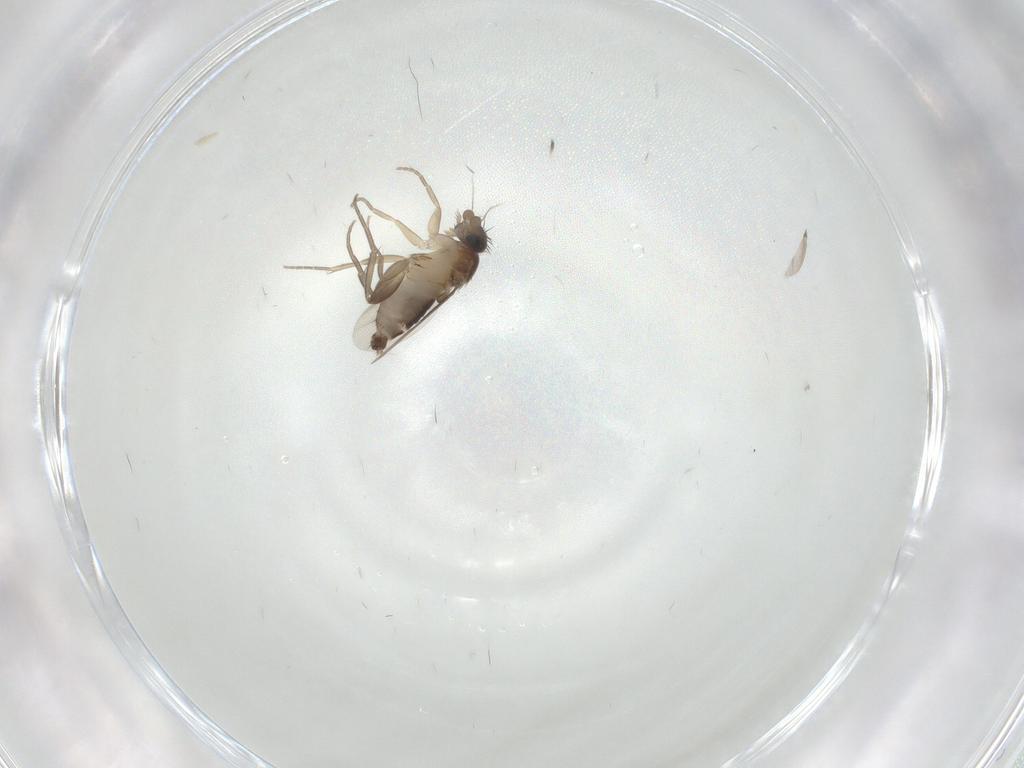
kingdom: Animalia
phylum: Arthropoda
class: Insecta
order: Diptera
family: Phoridae
